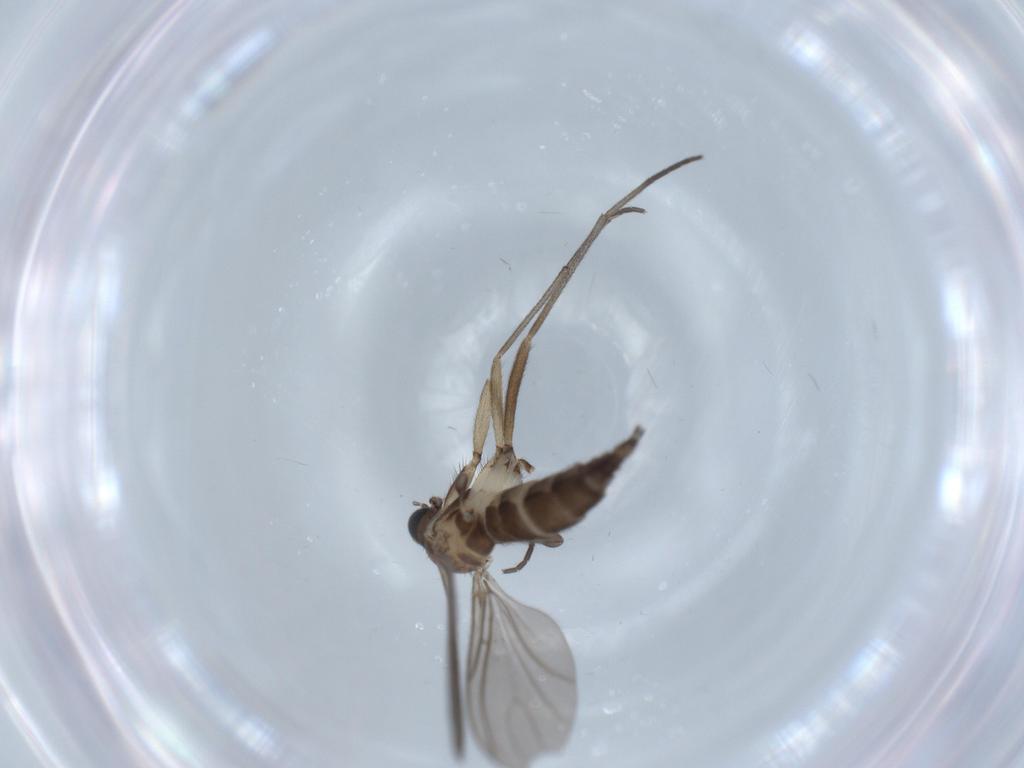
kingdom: Animalia
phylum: Arthropoda
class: Insecta
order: Diptera
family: Sciaridae
